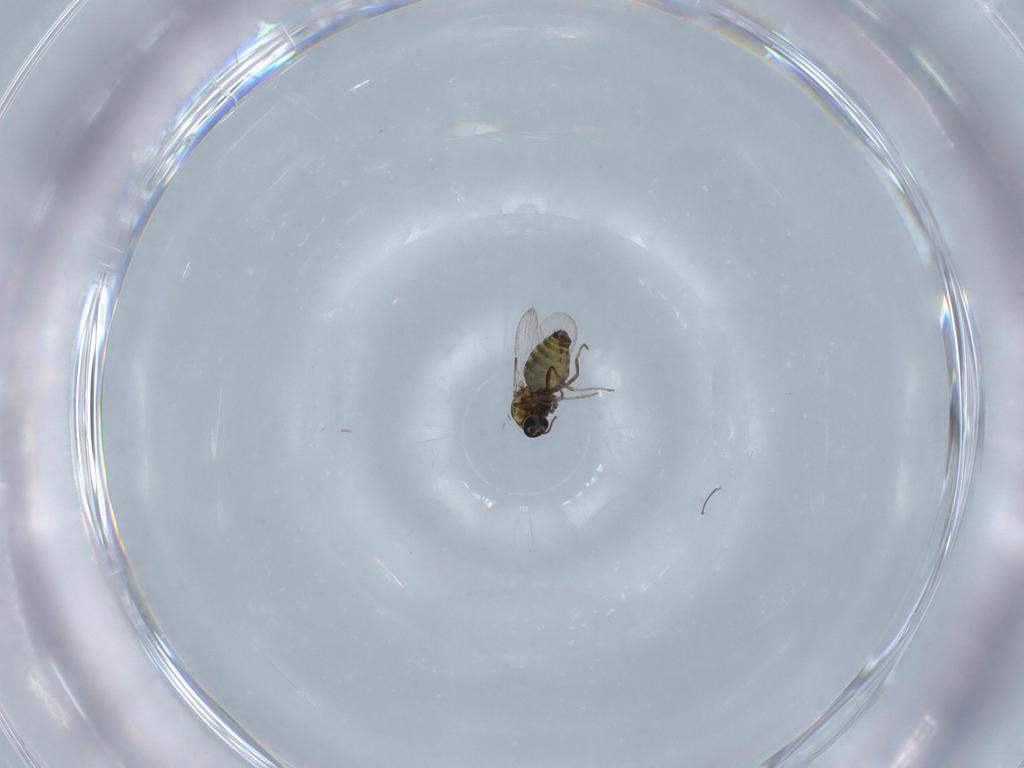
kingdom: Animalia
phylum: Arthropoda
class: Insecta
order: Diptera
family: Ceratopogonidae
